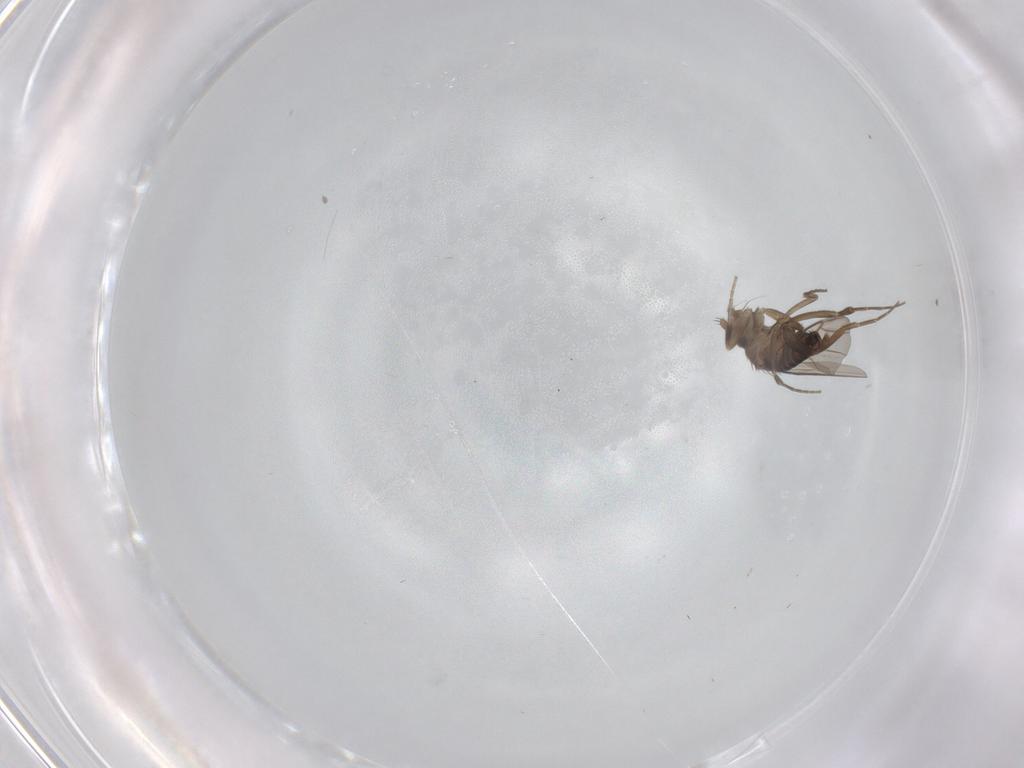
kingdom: Animalia
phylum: Arthropoda
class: Insecta
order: Diptera
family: Phoridae
